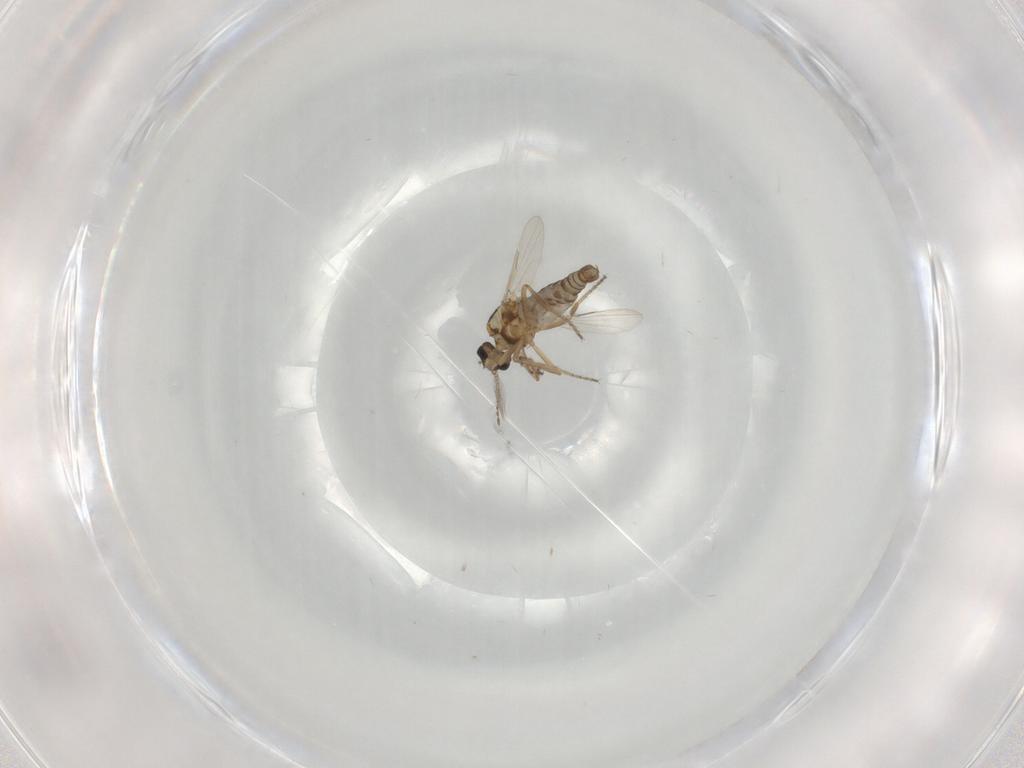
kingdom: Animalia
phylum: Arthropoda
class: Insecta
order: Diptera
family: Ceratopogonidae
